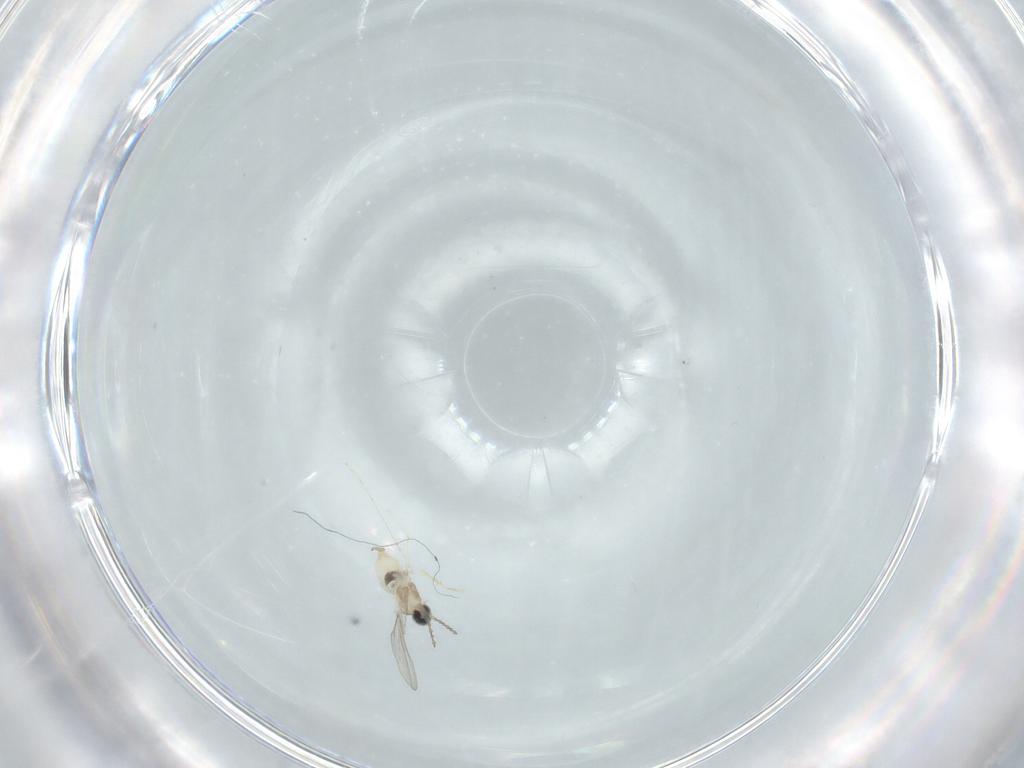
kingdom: Animalia
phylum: Arthropoda
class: Insecta
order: Diptera
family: Cecidomyiidae
